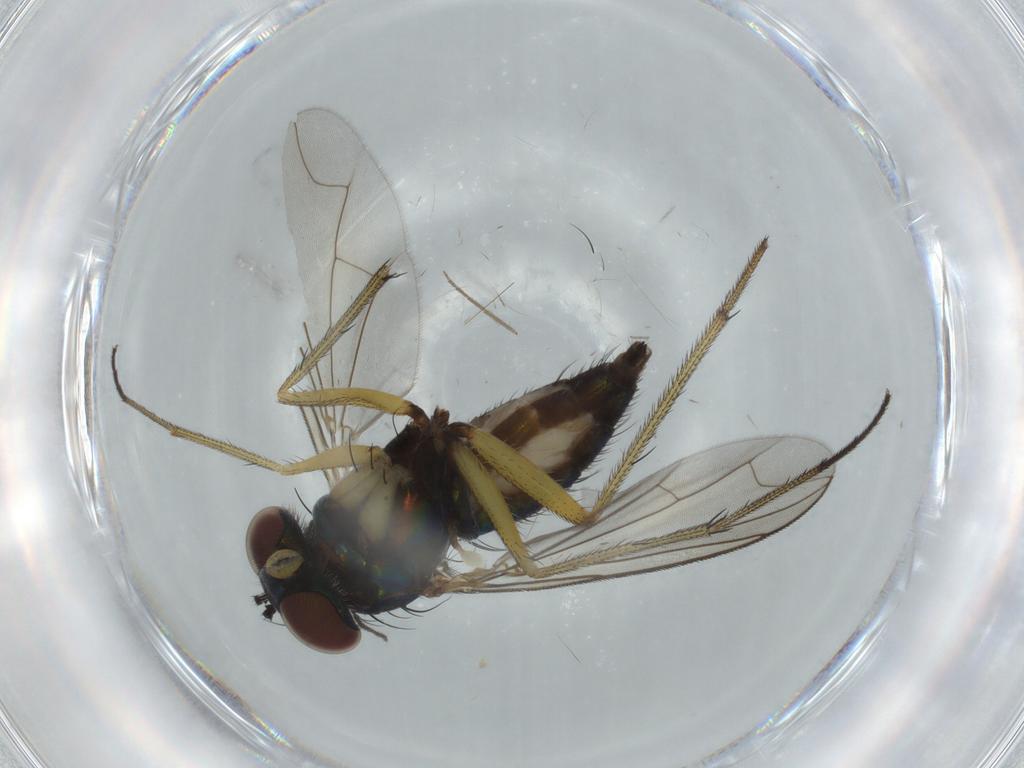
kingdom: Animalia
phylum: Arthropoda
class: Insecta
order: Diptera
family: Dolichopodidae
